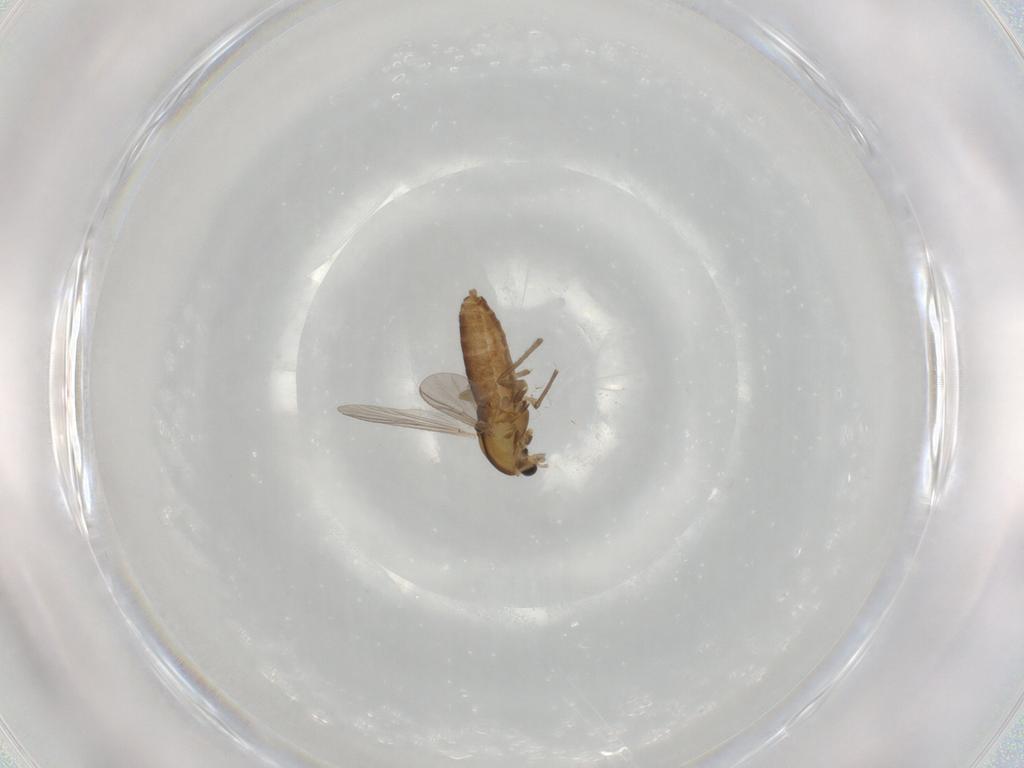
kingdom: Animalia
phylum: Arthropoda
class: Insecta
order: Diptera
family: Chironomidae
